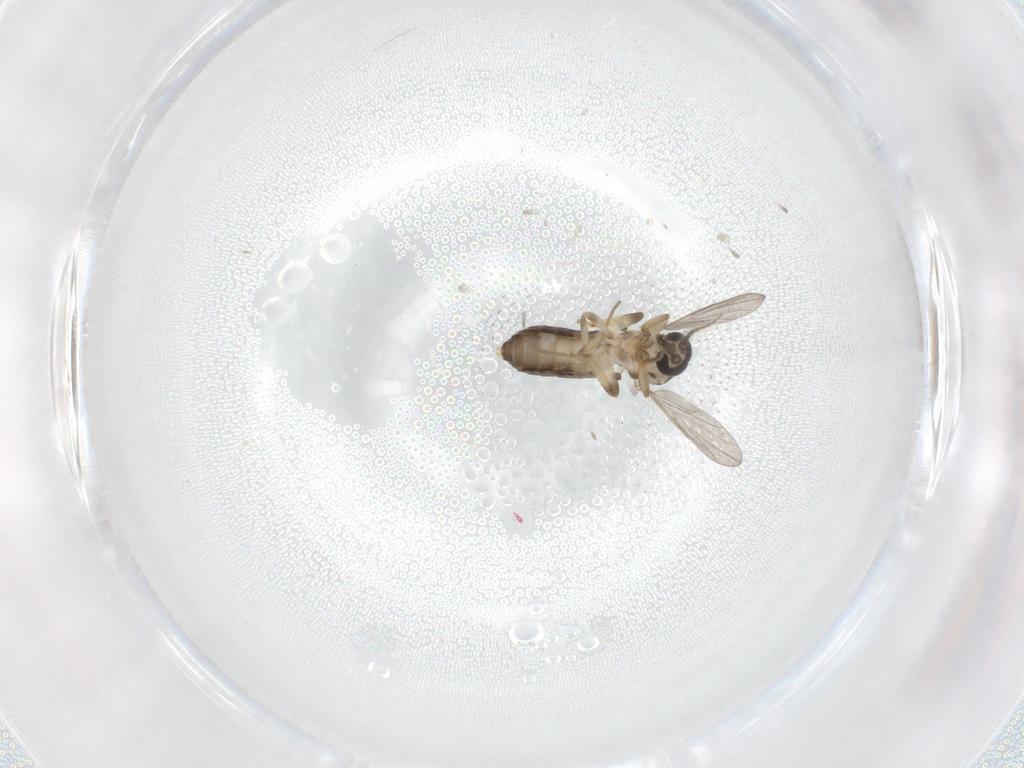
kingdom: Animalia
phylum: Arthropoda
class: Insecta
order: Diptera
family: Ceratopogonidae
